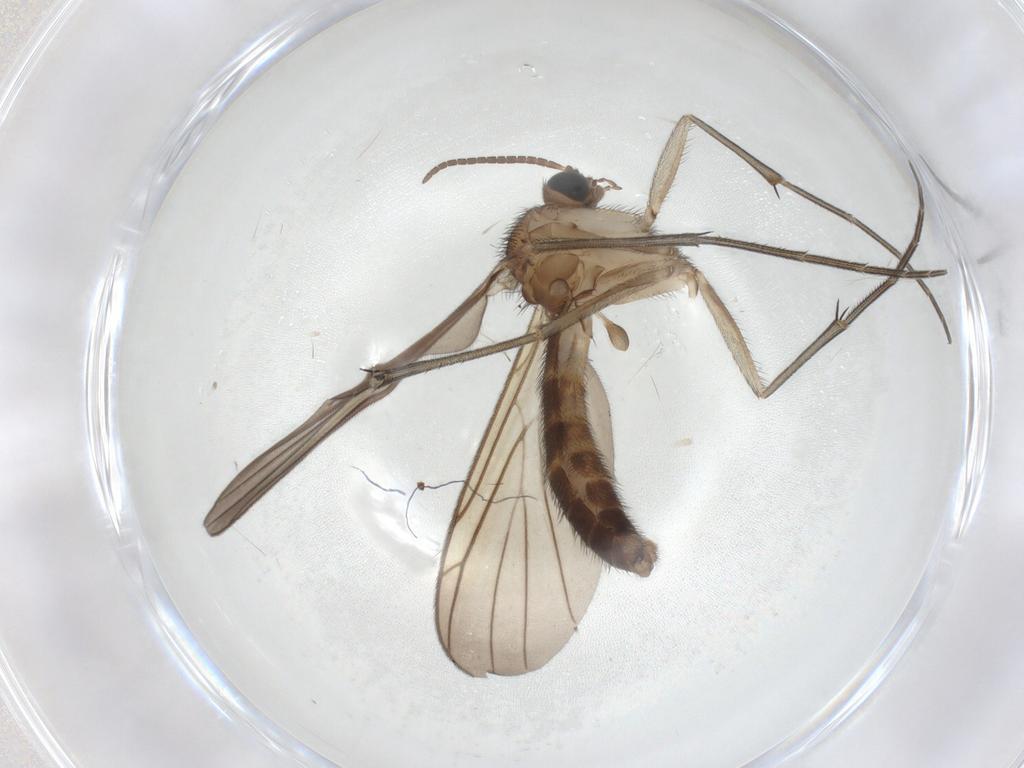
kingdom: Animalia
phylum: Arthropoda
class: Insecta
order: Diptera
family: Keroplatidae
